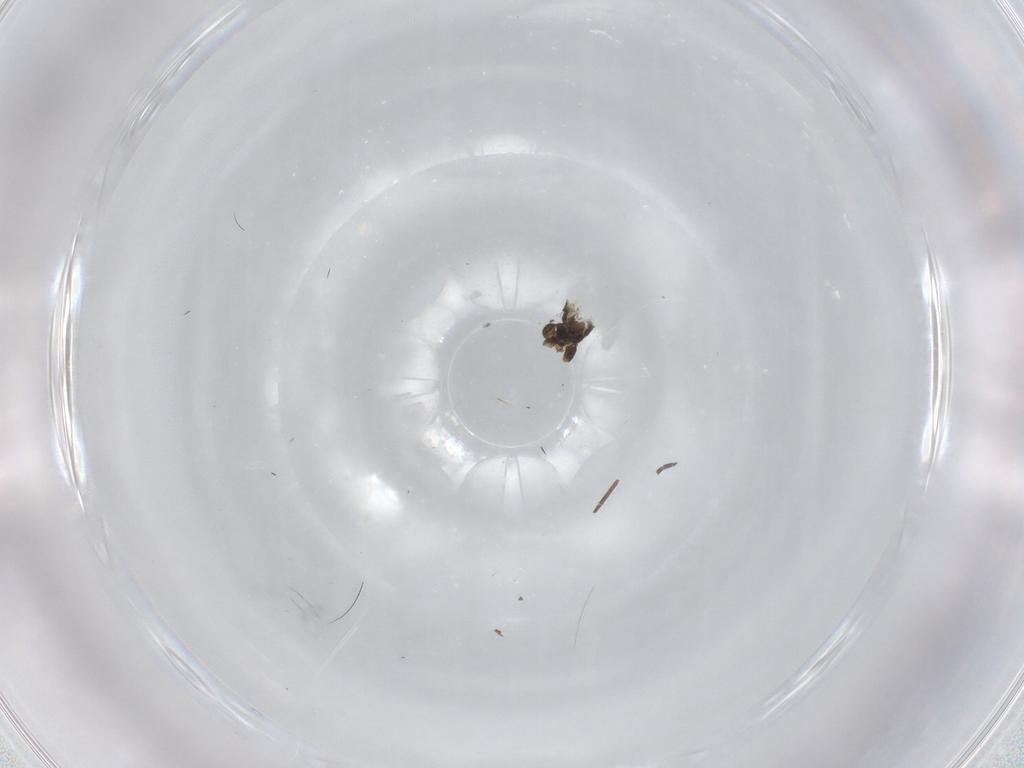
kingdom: Animalia
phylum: Arthropoda
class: Insecta
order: Diptera
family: Sciaridae
